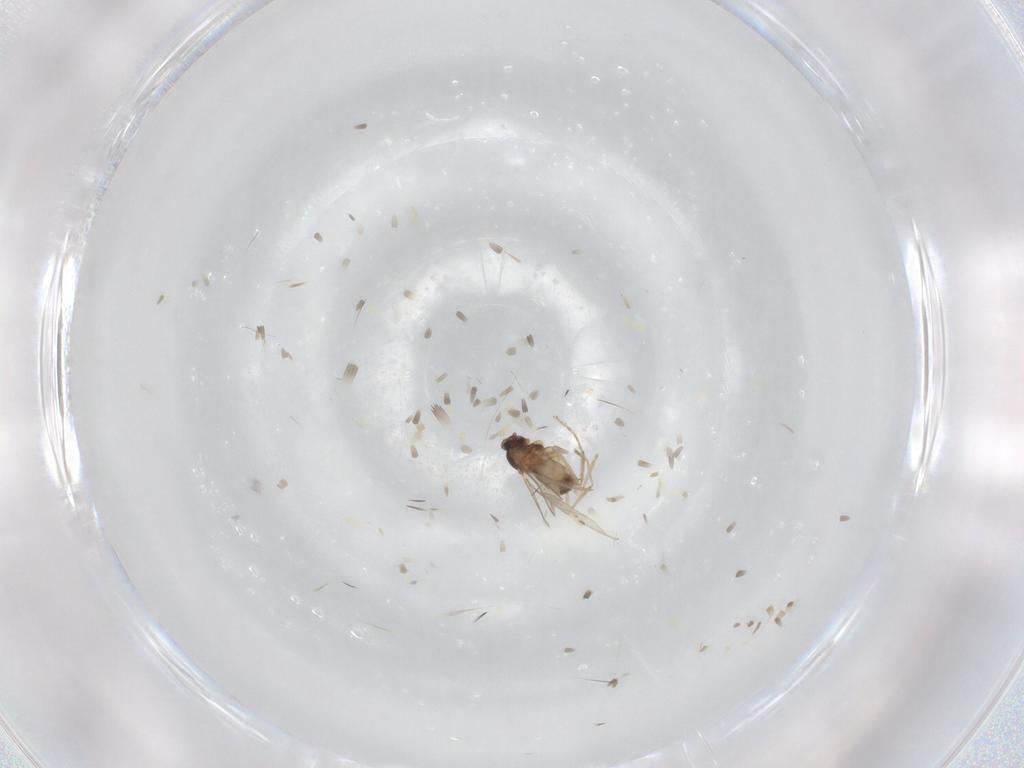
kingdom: Animalia
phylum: Arthropoda
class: Insecta
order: Diptera
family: Cecidomyiidae
